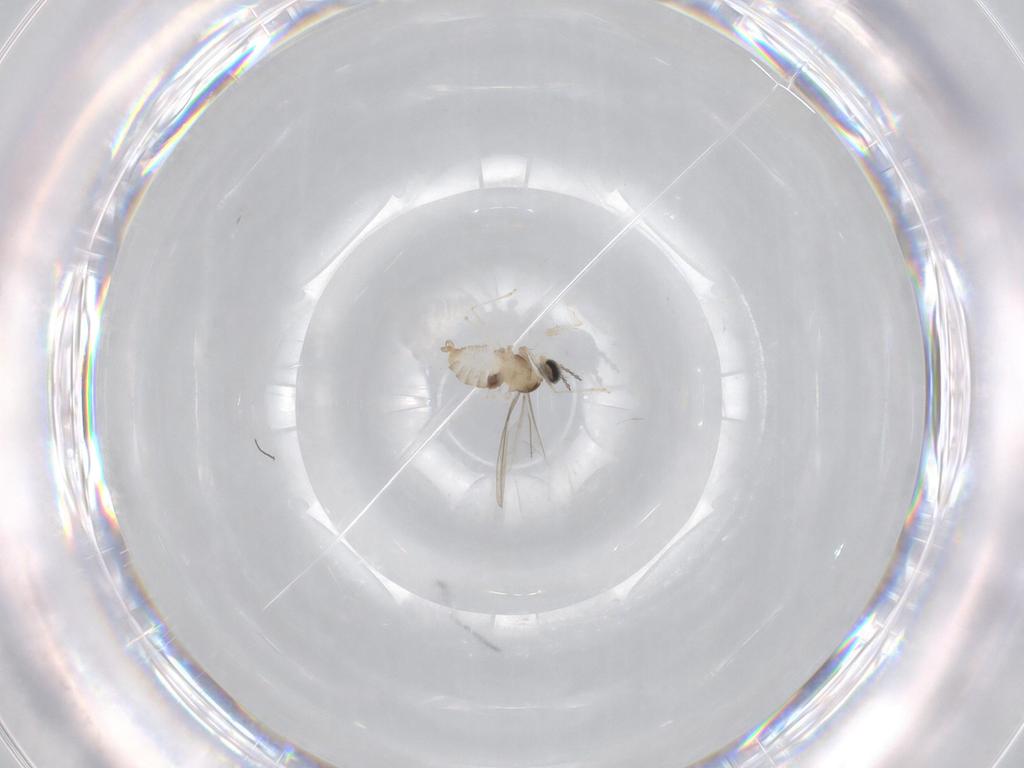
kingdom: Animalia
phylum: Arthropoda
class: Insecta
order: Diptera
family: Cecidomyiidae
